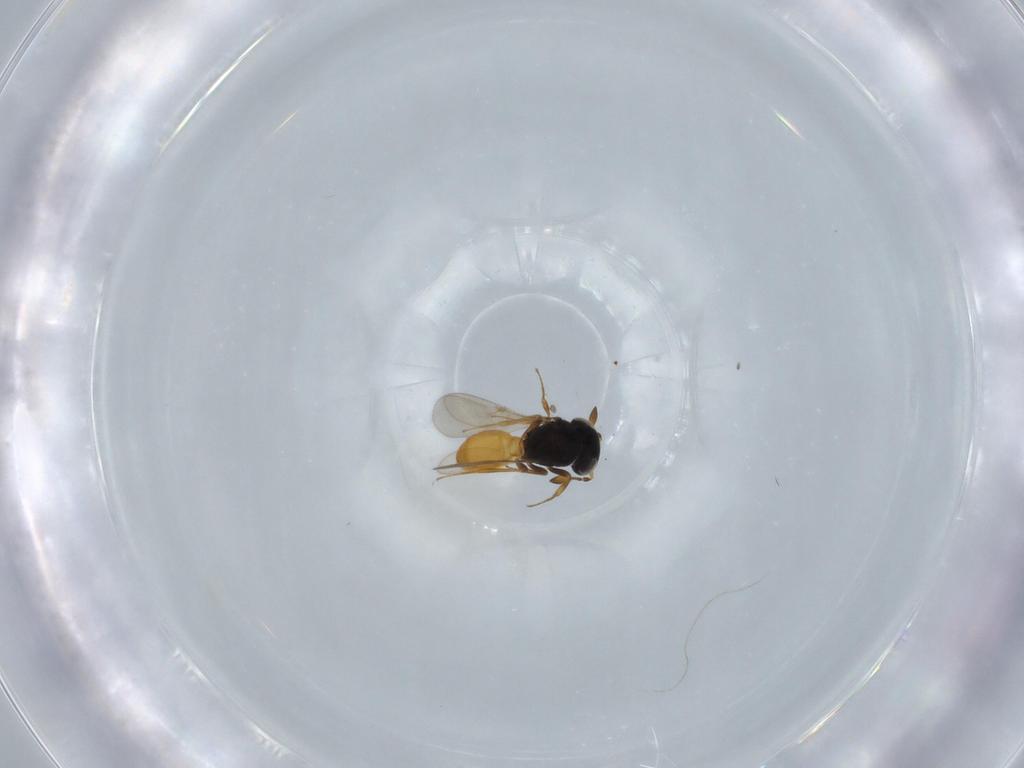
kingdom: Animalia
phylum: Arthropoda
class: Insecta
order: Hymenoptera
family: Scelionidae
